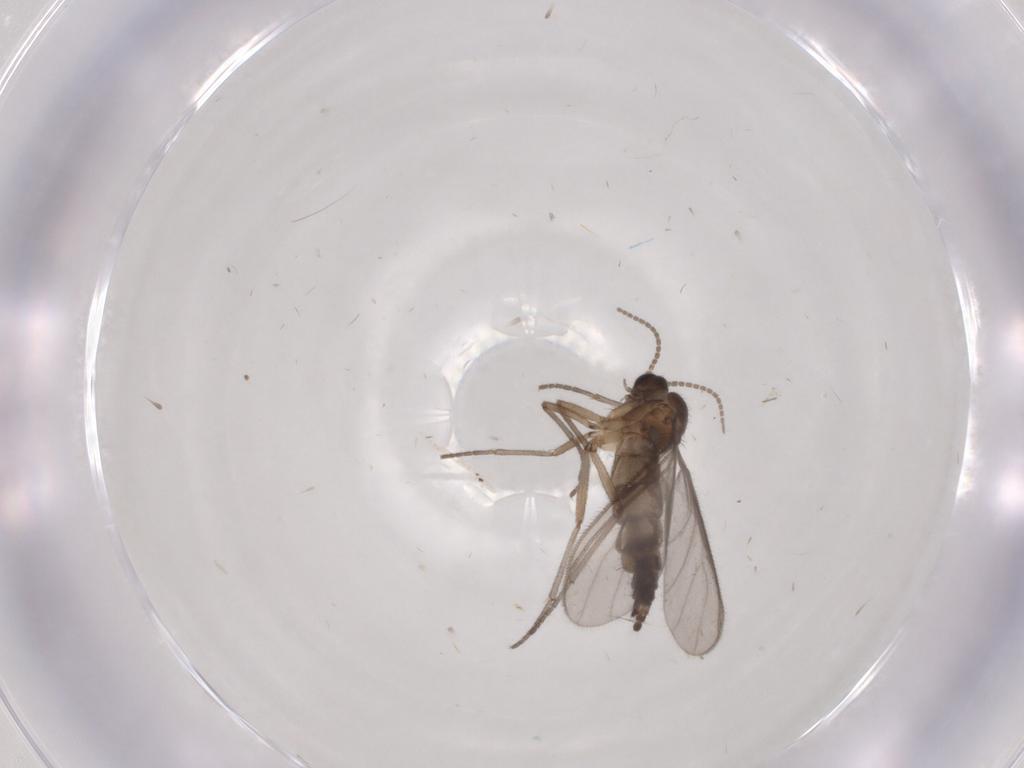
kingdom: Animalia
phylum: Arthropoda
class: Insecta
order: Diptera
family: Sciaridae
